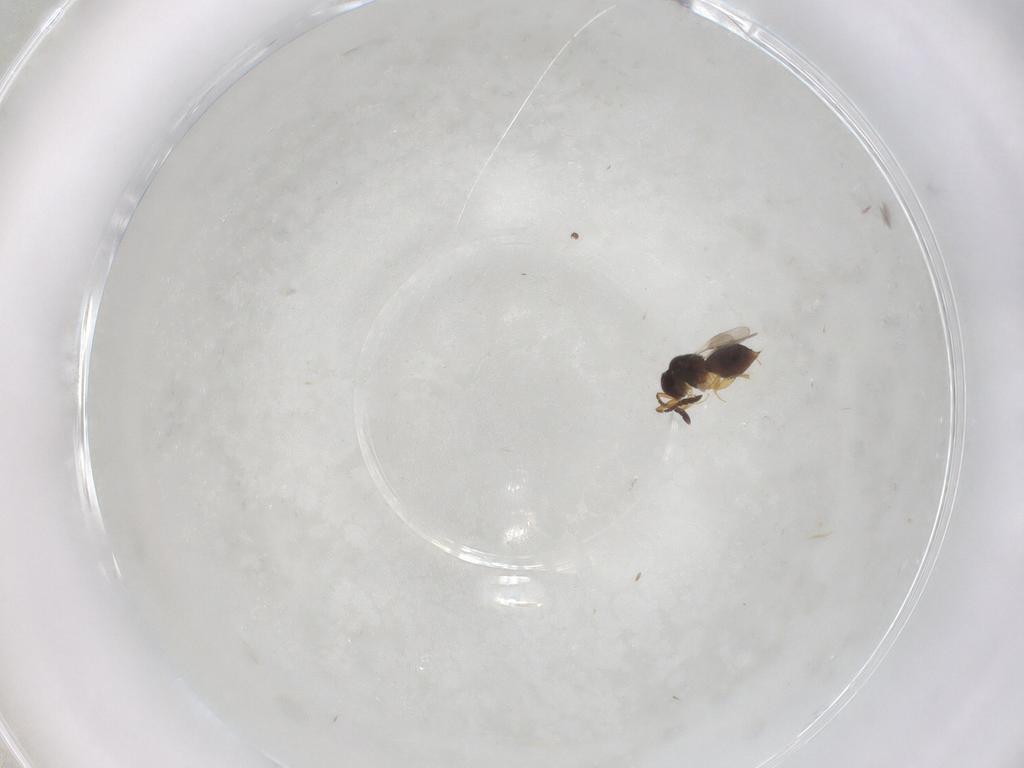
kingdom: Animalia
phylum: Arthropoda
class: Insecta
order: Hymenoptera
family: Bethylidae
